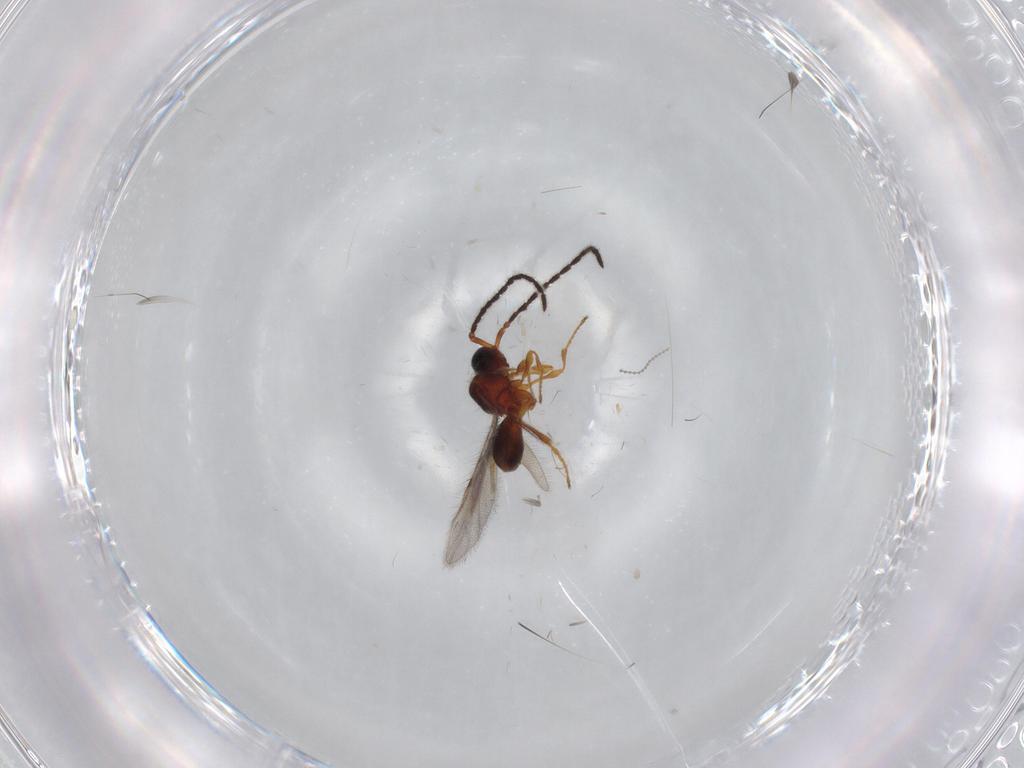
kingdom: Animalia
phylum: Arthropoda
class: Insecta
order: Hymenoptera
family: Diapriidae
